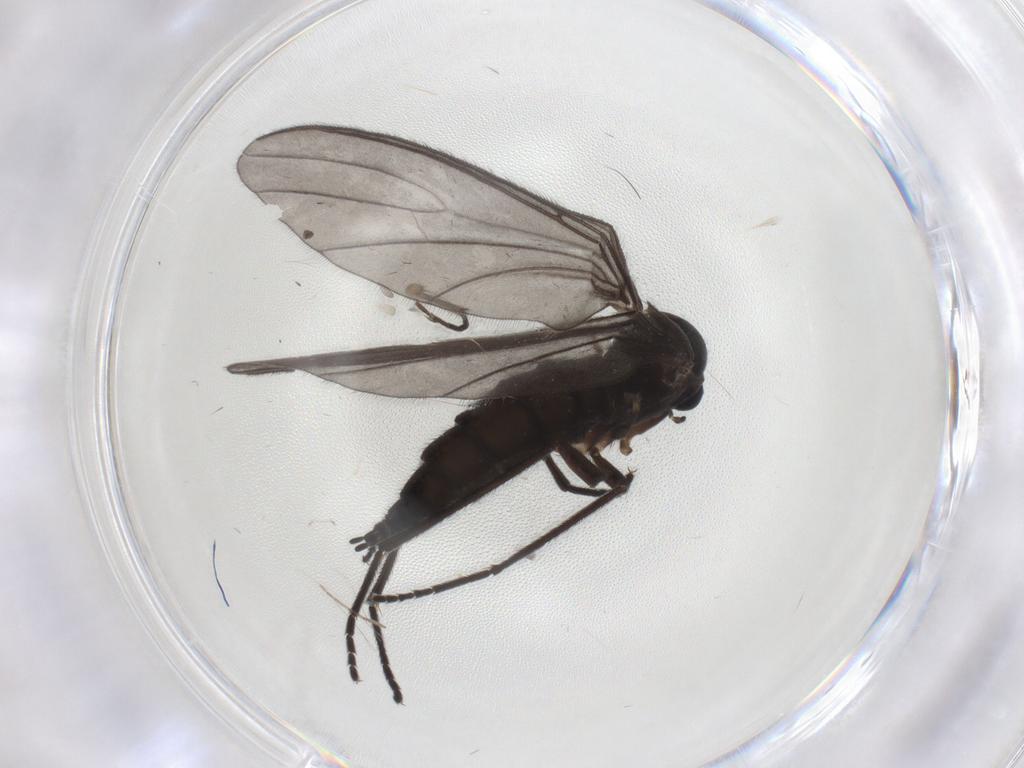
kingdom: Animalia
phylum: Arthropoda
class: Insecta
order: Diptera
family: Sciaridae
